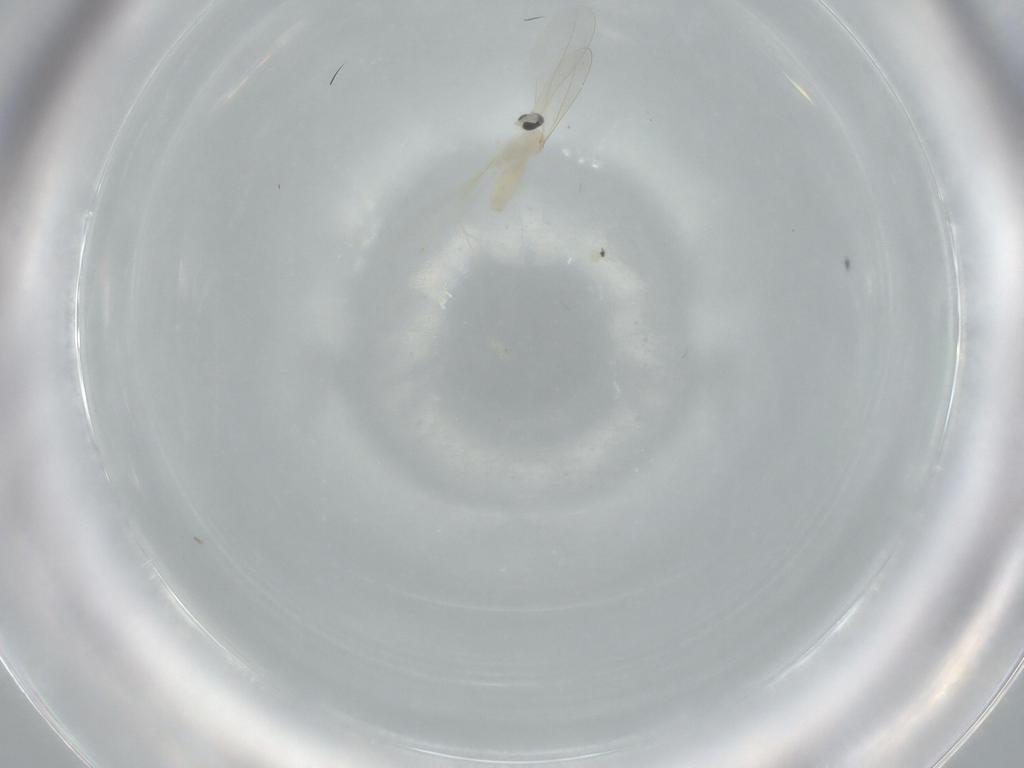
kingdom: Animalia
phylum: Arthropoda
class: Insecta
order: Diptera
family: Cecidomyiidae
